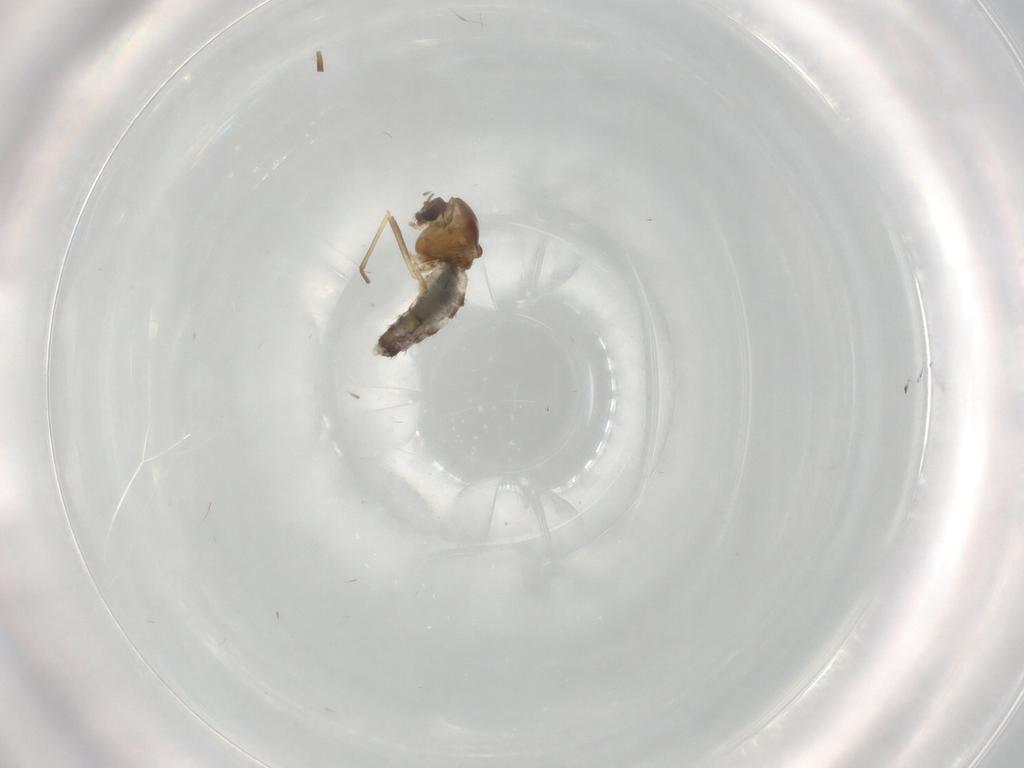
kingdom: Animalia
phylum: Arthropoda
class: Insecta
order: Diptera
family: Chironomidae
